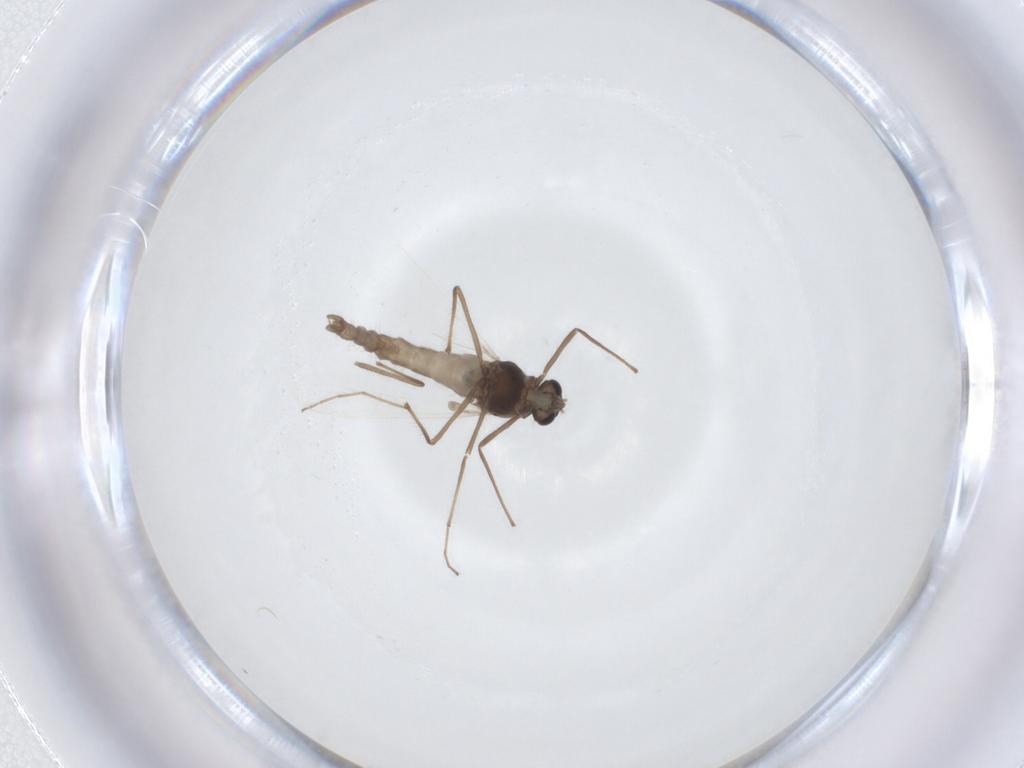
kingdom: Animalia
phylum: Arthropoda
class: Insecta
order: Diptera
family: Chironomidae
